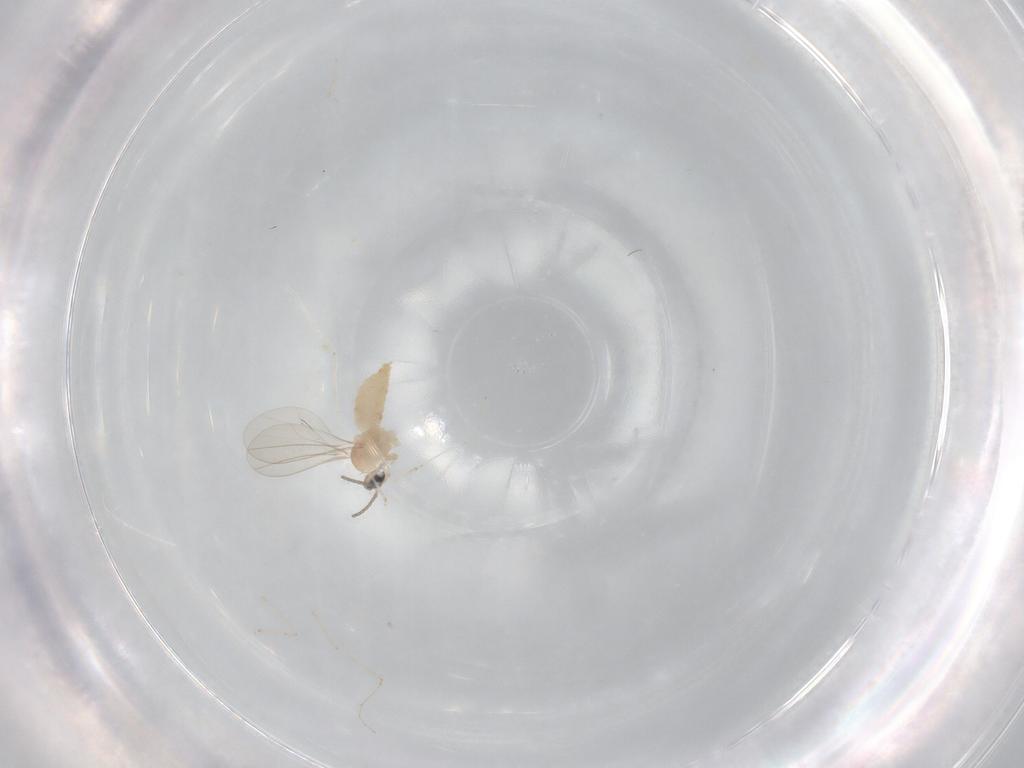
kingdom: Animalia
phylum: Arthropoda
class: Insecta
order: Diptera
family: Cecidomyiidae
